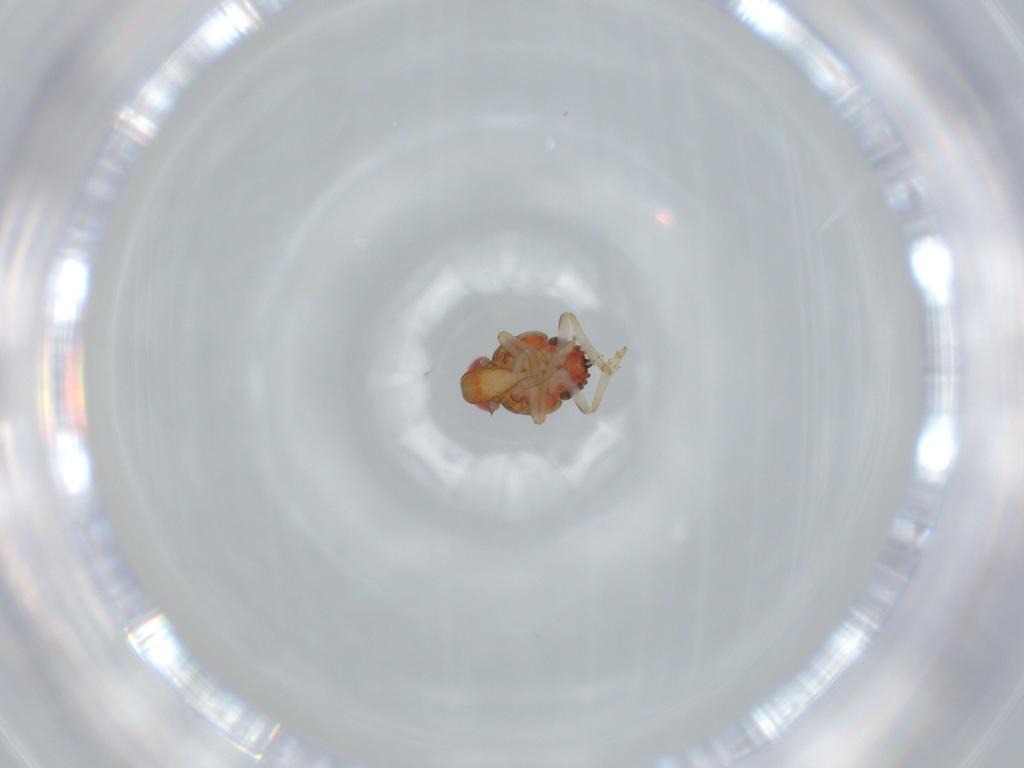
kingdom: Animalia
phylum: Arthropoda
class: Insecta
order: Hemiptera
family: Issidae
